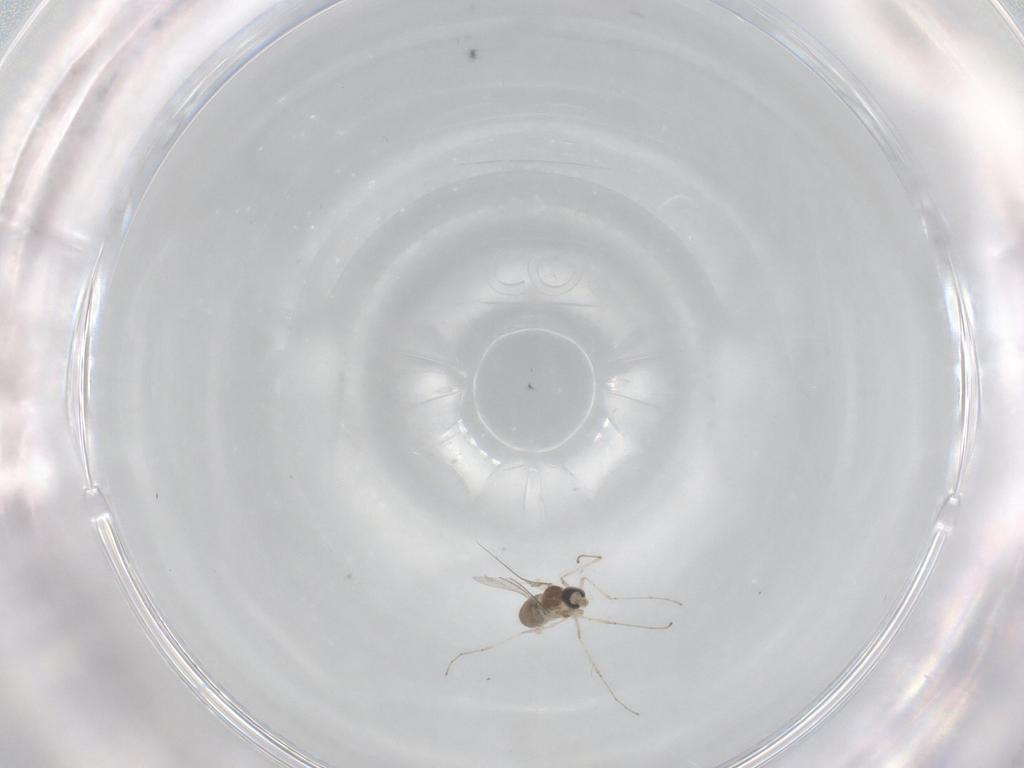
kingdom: Animalia
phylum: Arthropoda
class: Insecta
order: Diptera
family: Cecidomyiidae
